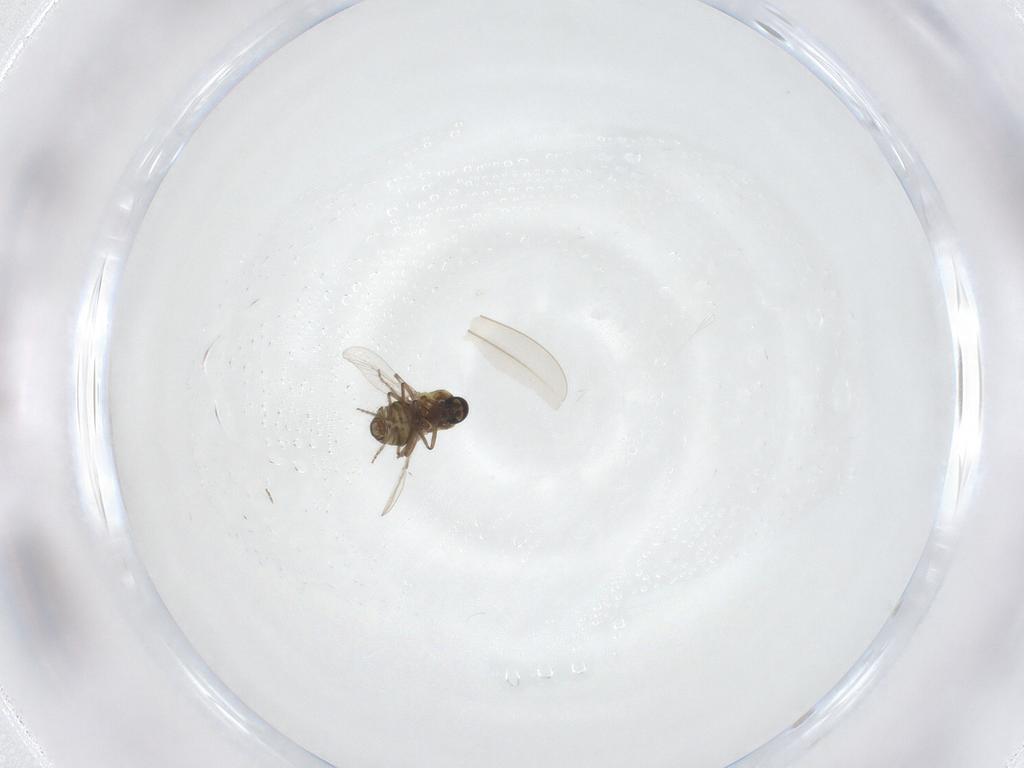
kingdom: Animalia
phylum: Arthropoda
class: Insecta
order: Diptera
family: Ceratopogonidae
